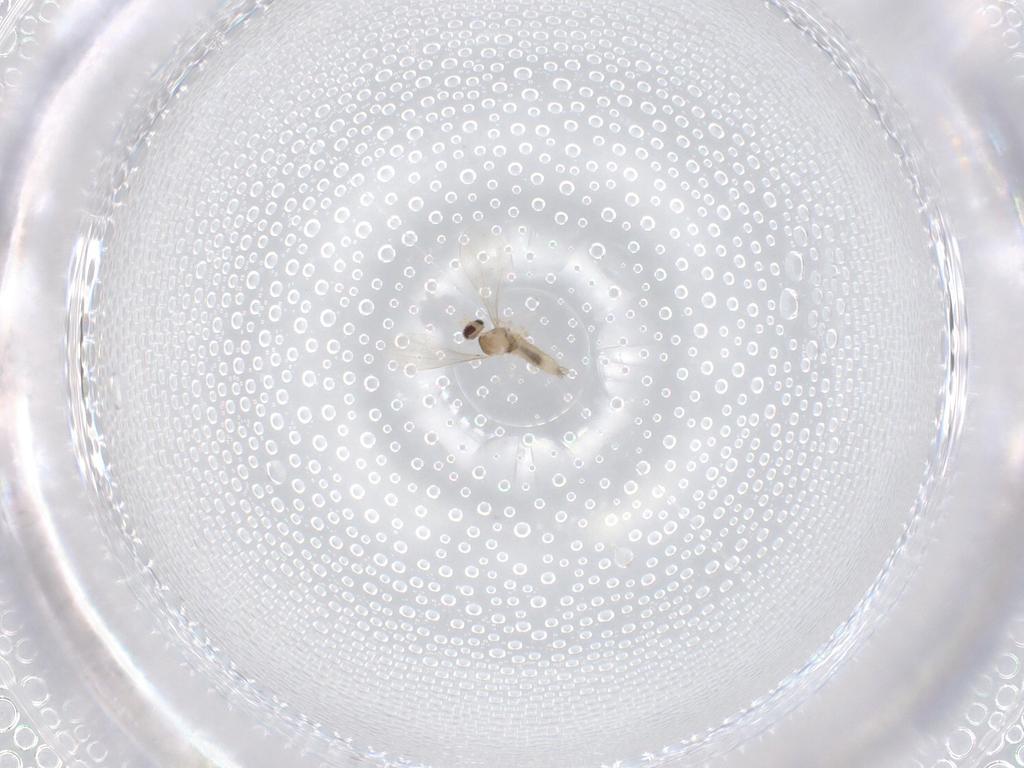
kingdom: Animalia
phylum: Arthropoda
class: Insecta
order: Diptera
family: Cecidomyiidae
